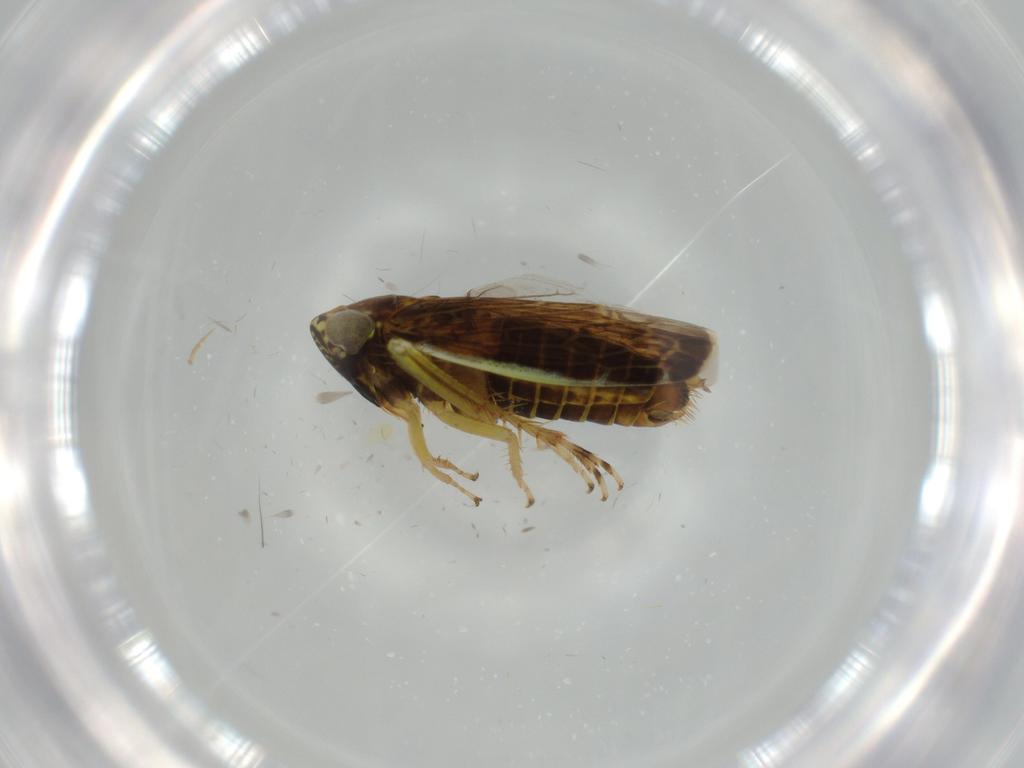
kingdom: Animalia
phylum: Arthropoda
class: Insecta
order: Hemiptera
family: Cicadellidae
